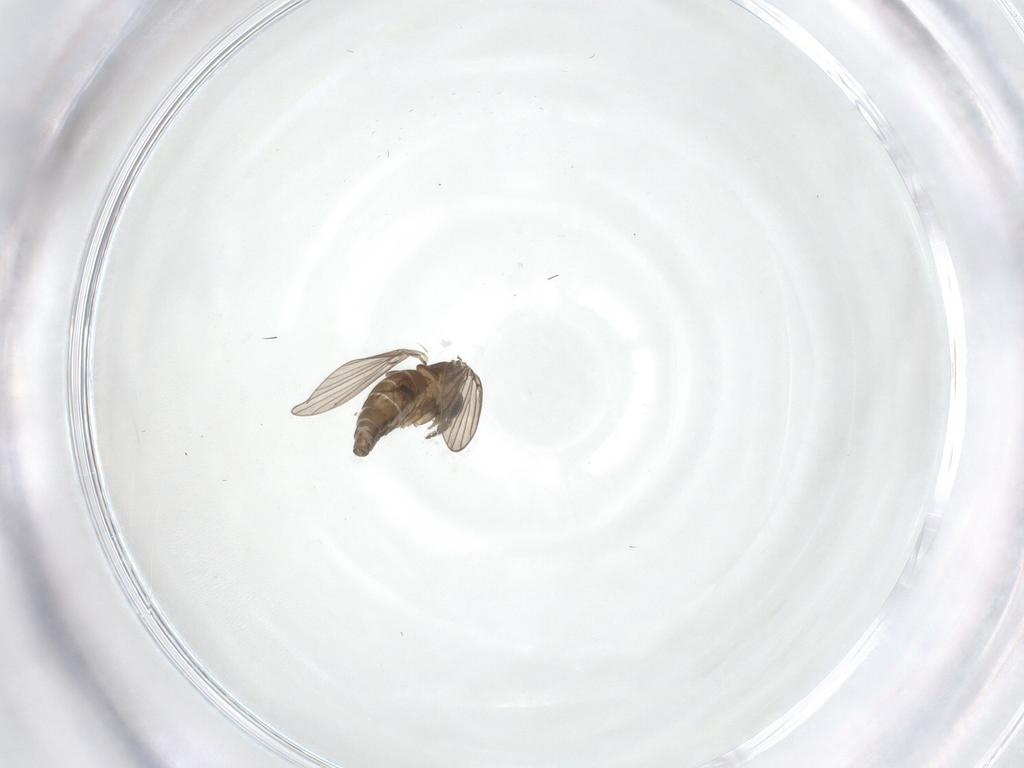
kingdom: Animalia
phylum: Arthropoda
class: Insecta
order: Diptera
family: Psychodidae
